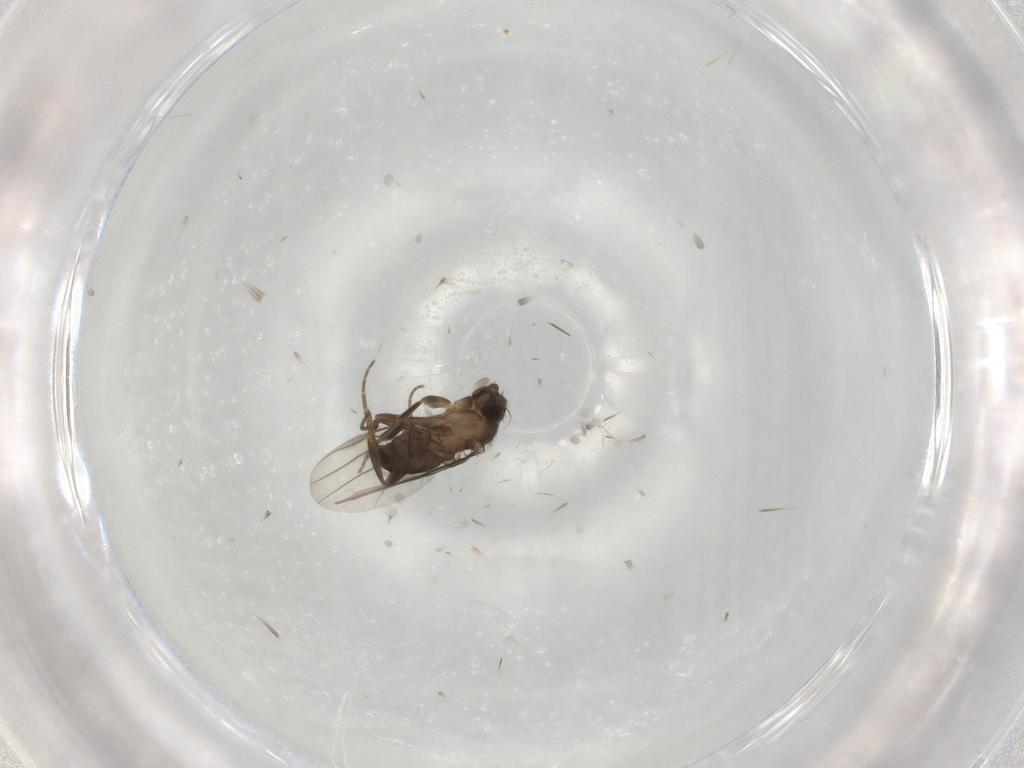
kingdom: Animalia
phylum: Arthropoda
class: Insecta
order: Diptera
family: Phoridae
